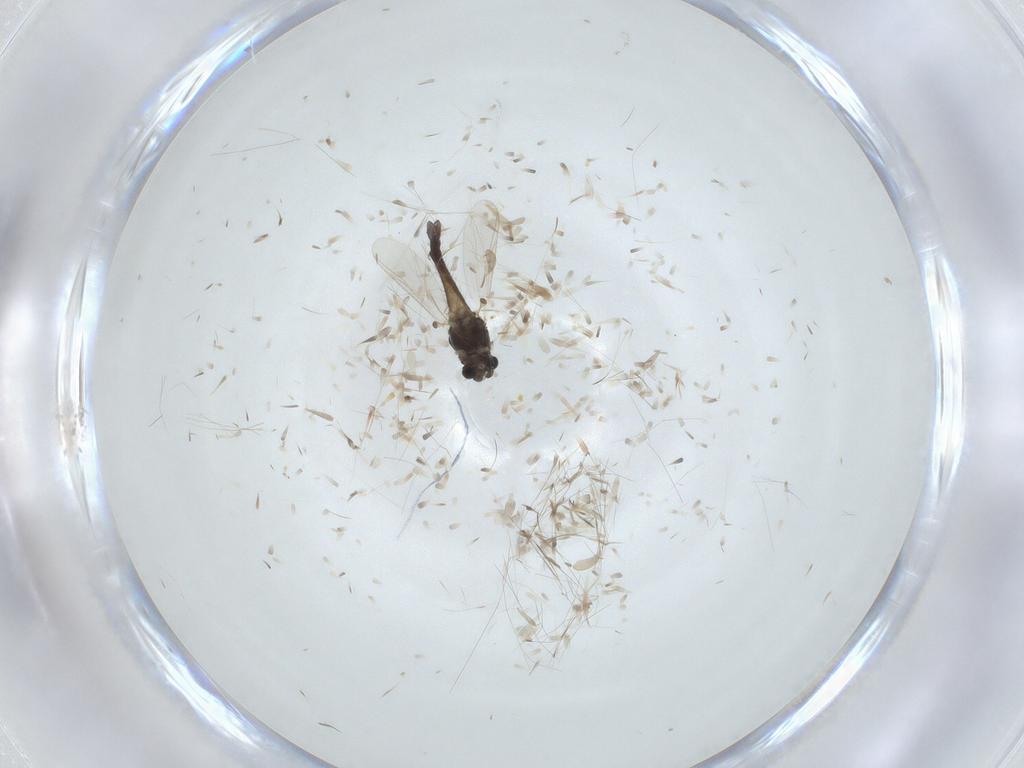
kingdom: Animalia
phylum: Arthropoda
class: Insecta
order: Diptera
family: Chironomidae
